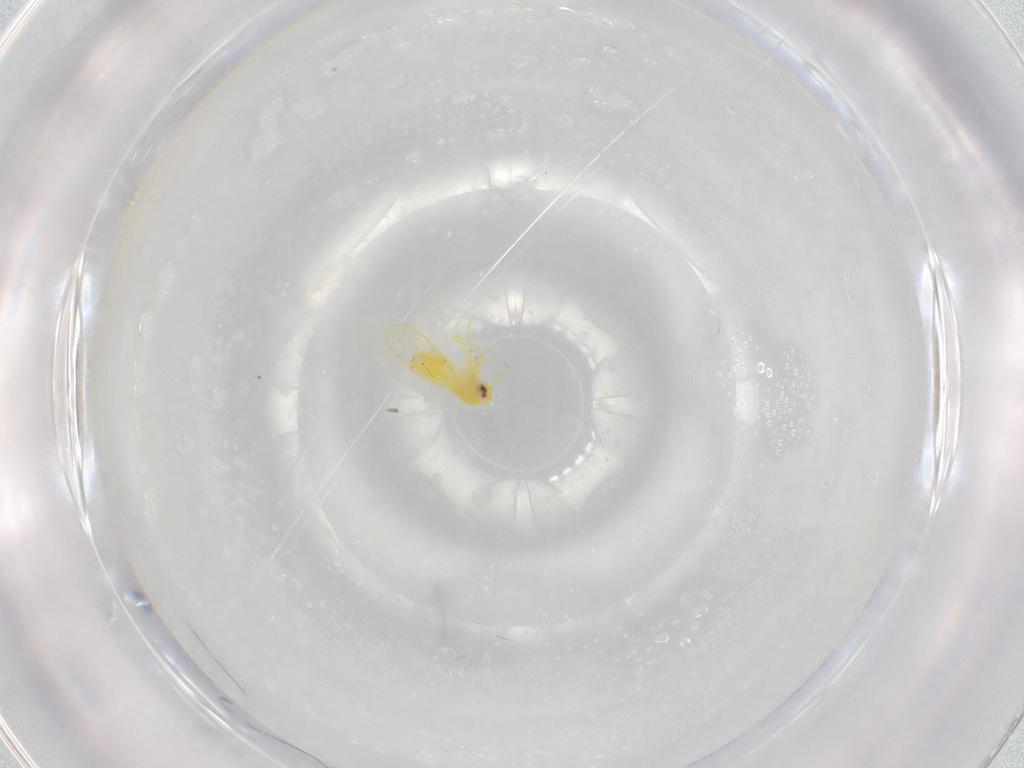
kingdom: Animalia
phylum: Arthropoda
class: Insecta
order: Hemiptera
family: Aleyrodidae
